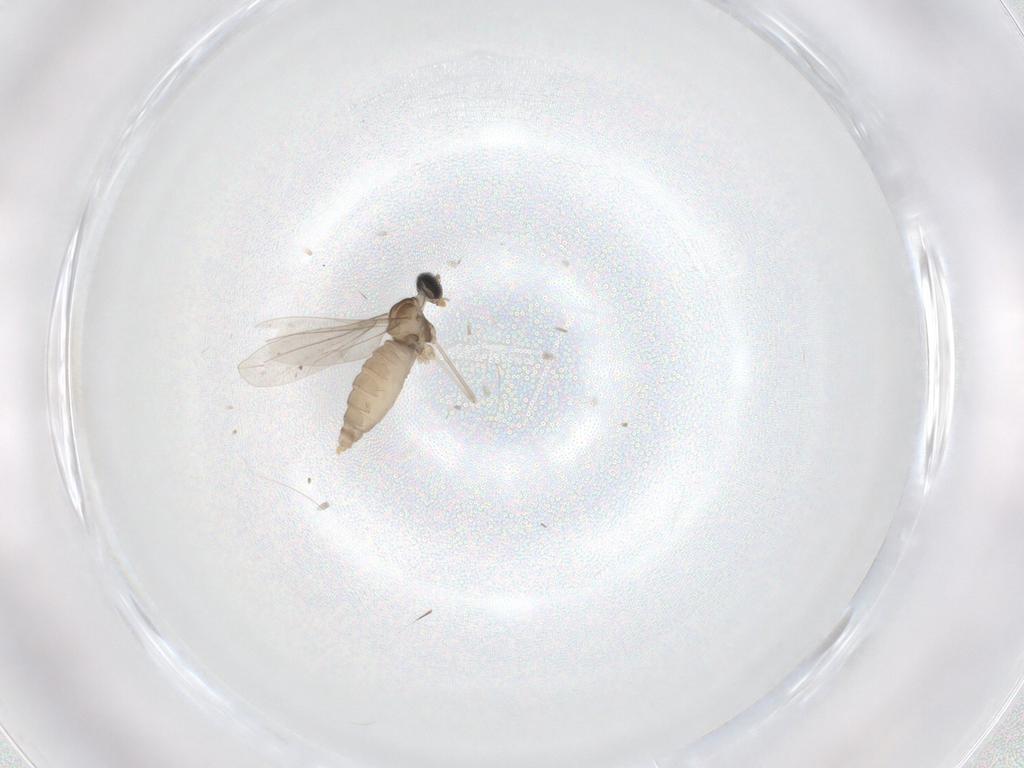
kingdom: Animalia
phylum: Arthropoda
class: Insecta
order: Diptera
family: Cecidomyiidae
